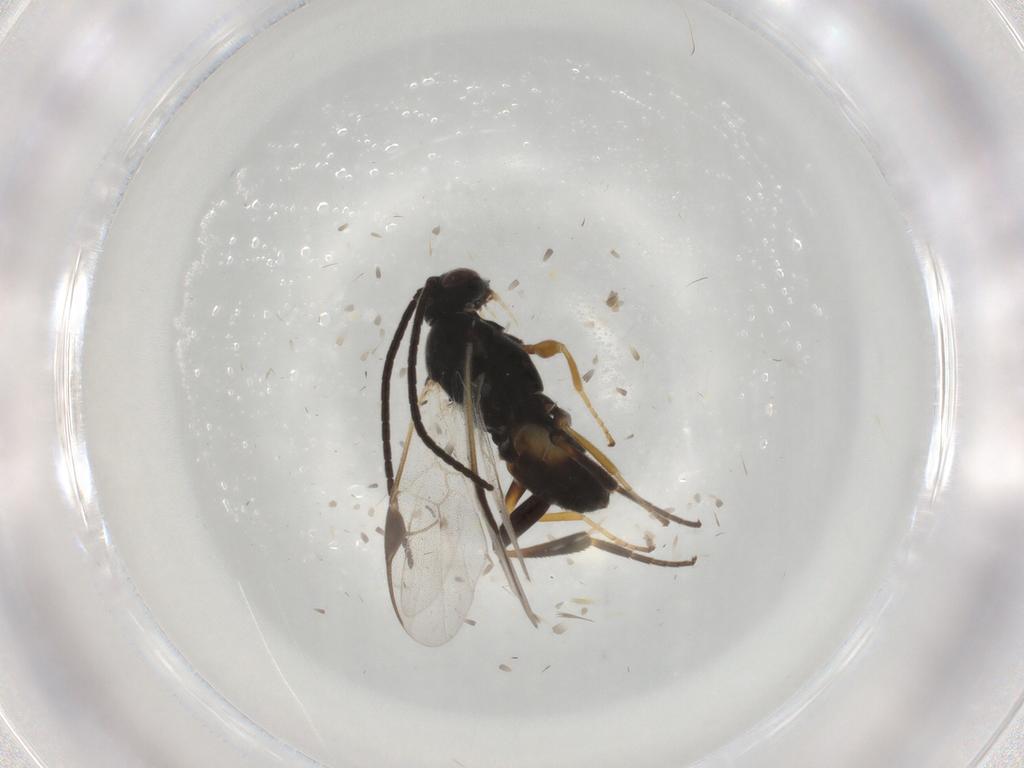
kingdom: Animalia
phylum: Arthropoda
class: Insecta
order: Hymenoptera
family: Braconidae
